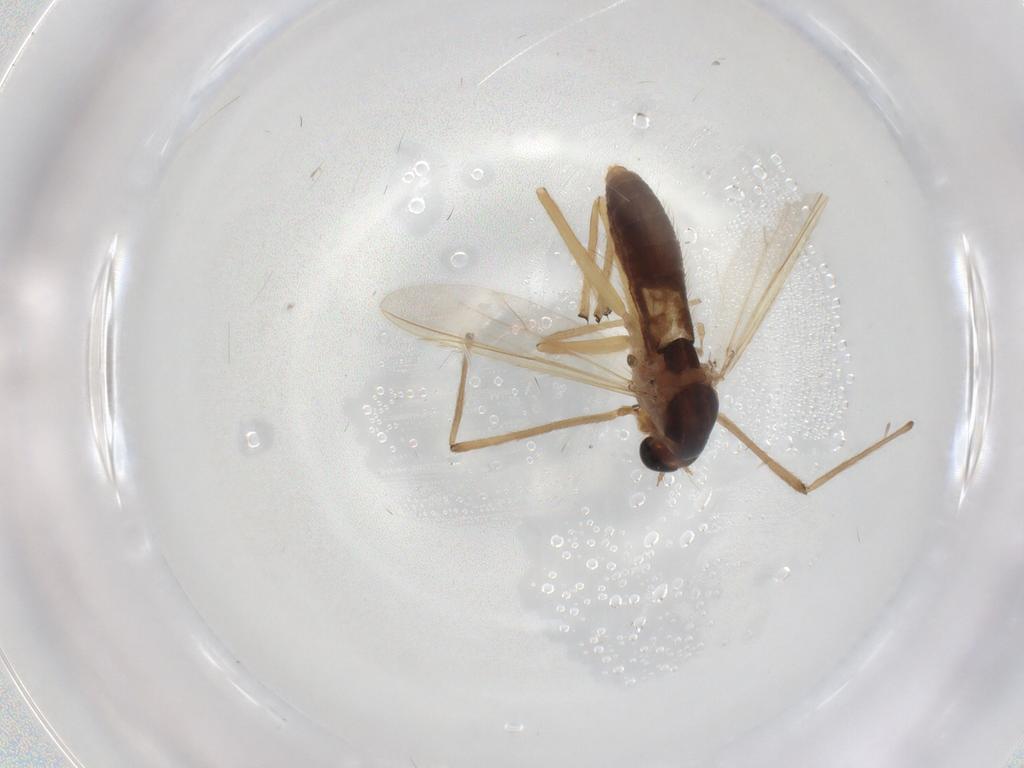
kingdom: Animalia
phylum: Arthropoda
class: Insecta
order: Diptera
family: Chironomidae
